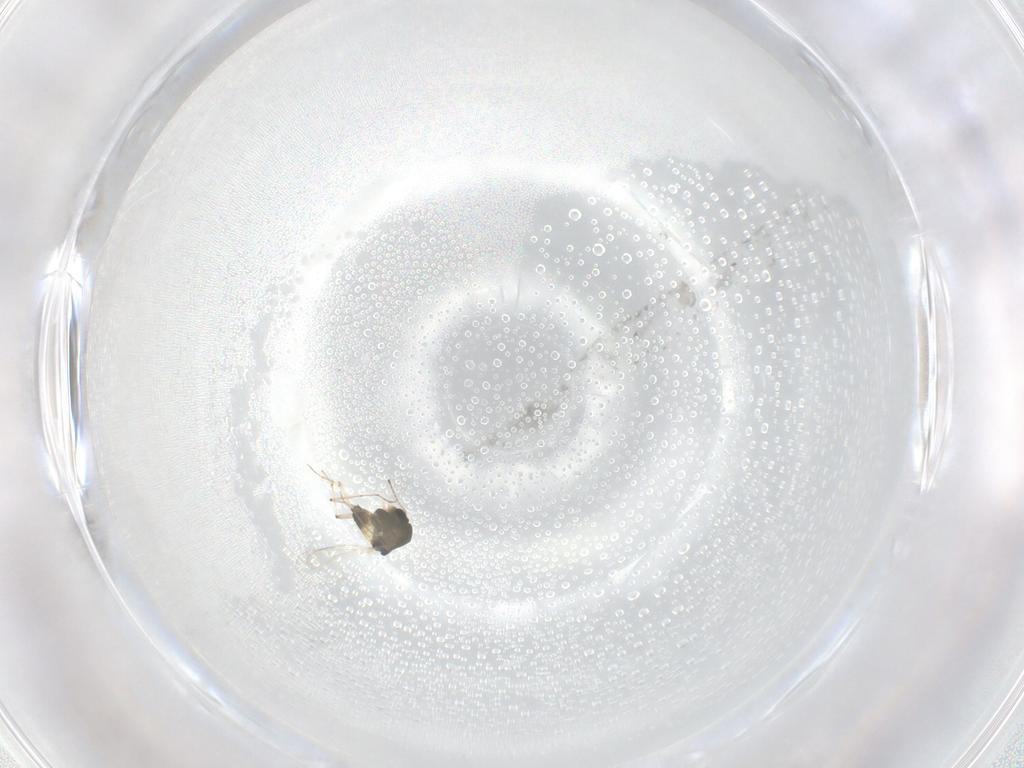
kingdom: Animalia
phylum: Arthropoda
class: Insecta
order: Diptera
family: Chironomidae
